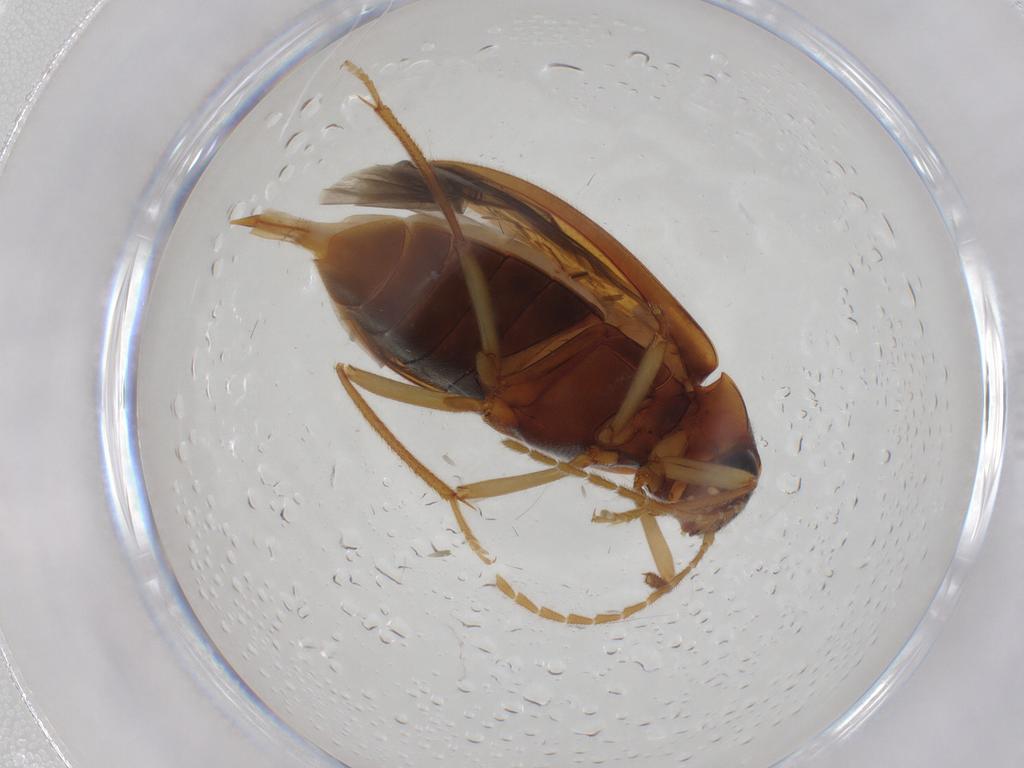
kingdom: Animalia
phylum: Arthropoda
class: Insecta
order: Coleoptera
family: Ptilodactylidae
